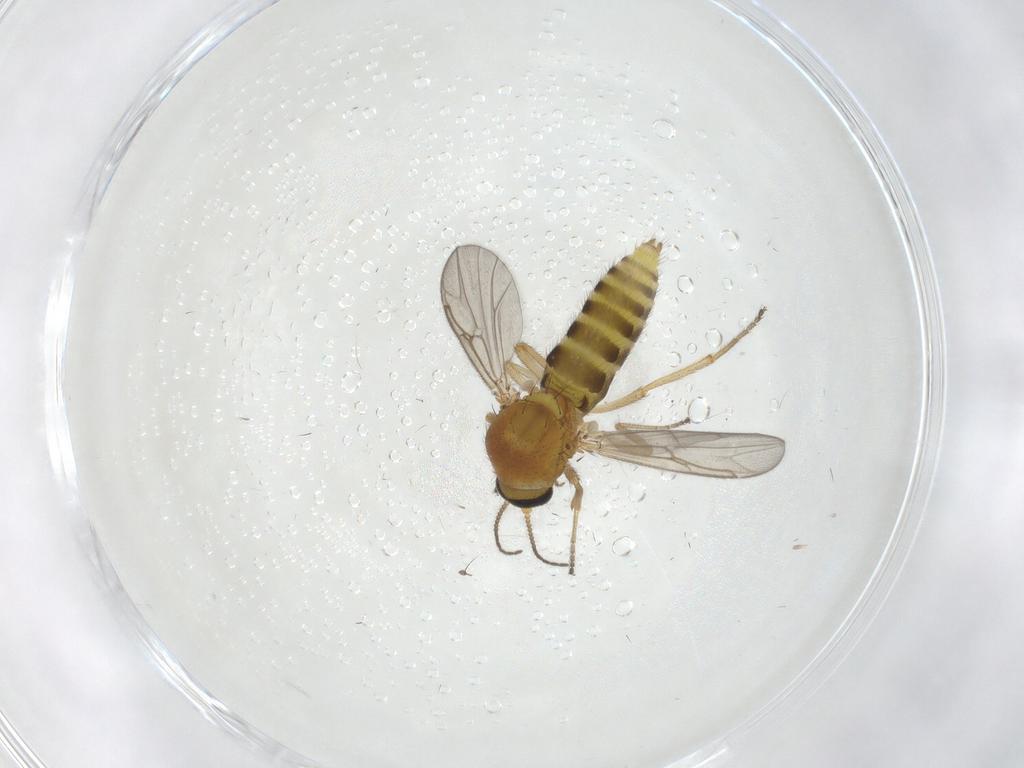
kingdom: Animalia
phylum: Arthropoda
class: Insecta
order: Diptera
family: Ceratopogonidae
